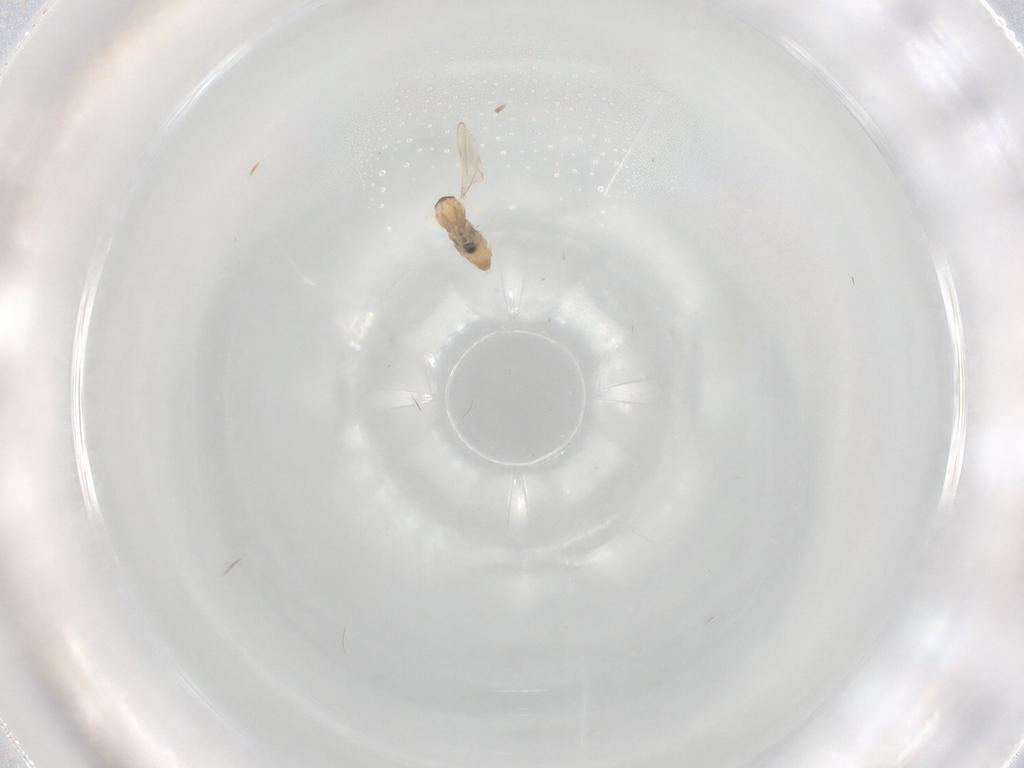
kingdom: Animalia
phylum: Arthropoda
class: Insecta
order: Diptera
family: Cecidomyiidae
